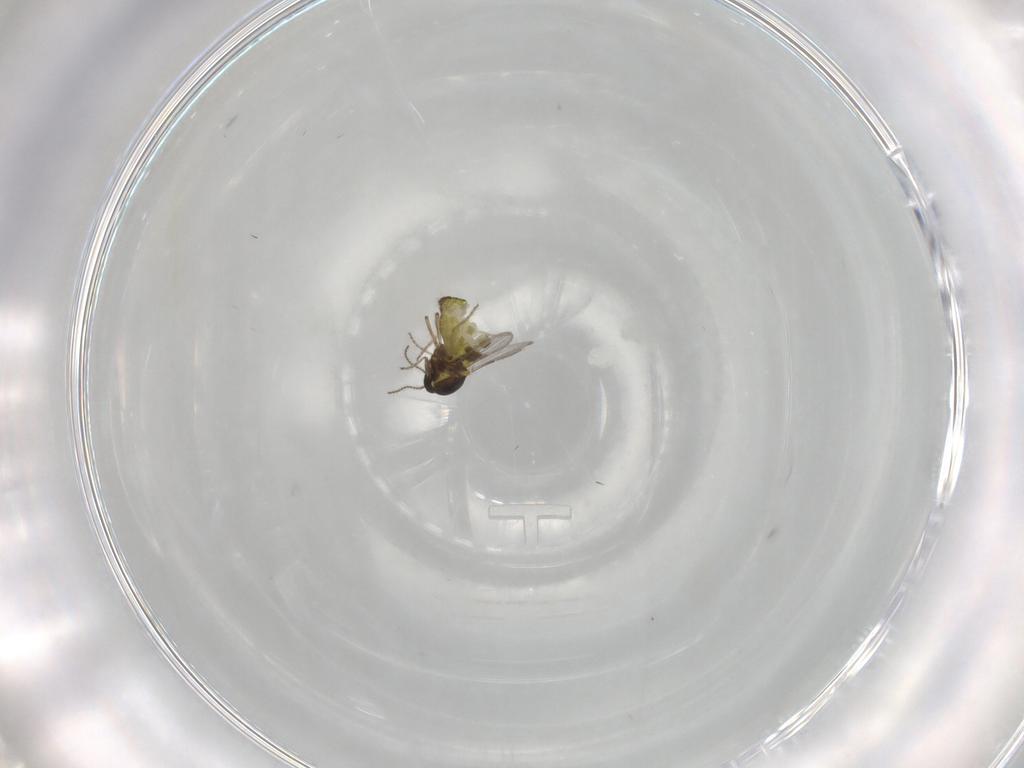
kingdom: Animalia
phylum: Arthropoda
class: Insecta
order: Diptera
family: Ceratopogonidae
